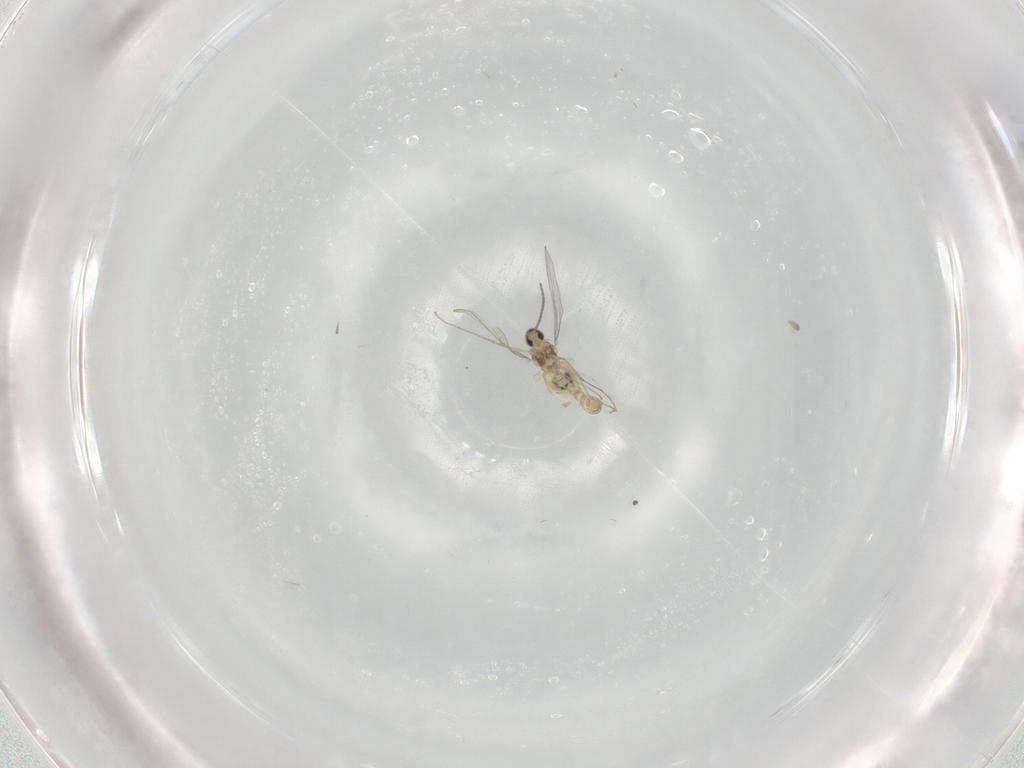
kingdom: Animalia
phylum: Arthropoda
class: Insecta
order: Diptera
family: Cecidomyiidae
